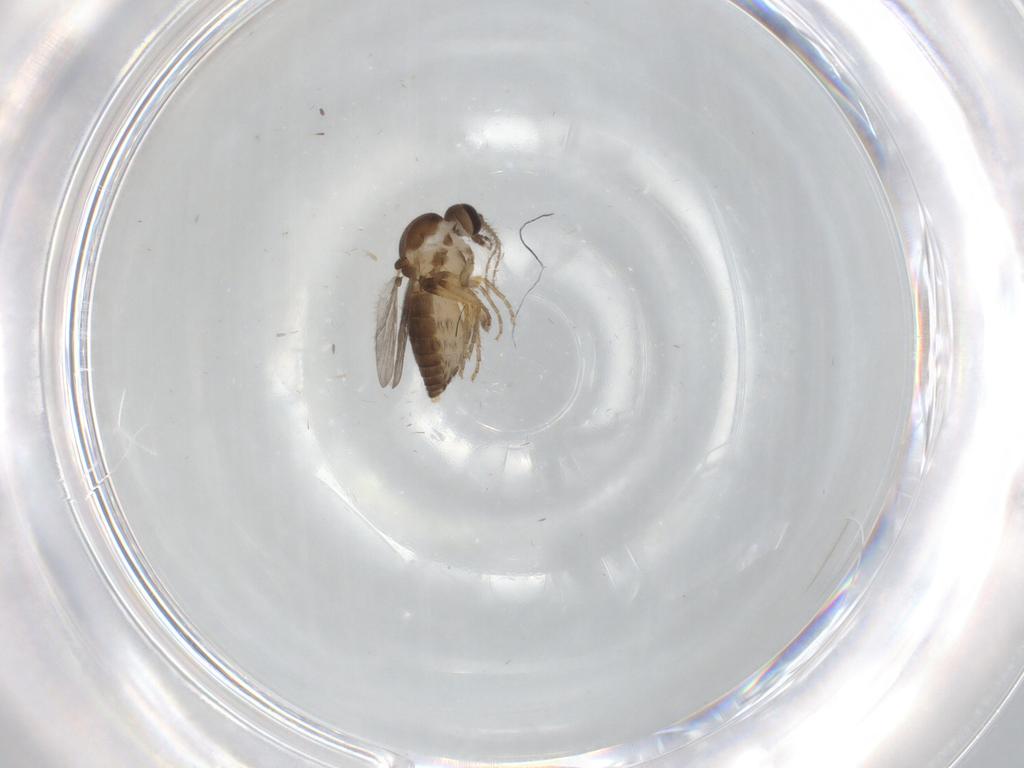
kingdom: Animalia
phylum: Arthropoda
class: Insecta
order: Diptera
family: Ceratopogonidae
